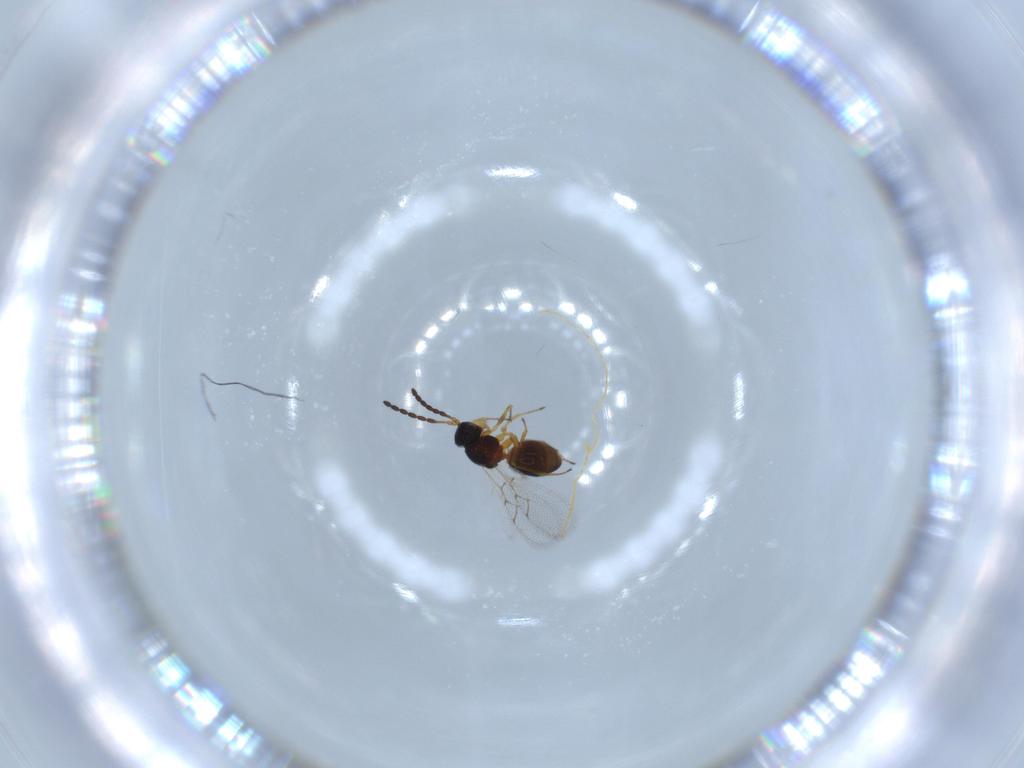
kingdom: Animalia
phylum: Arthropoda
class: Insecta
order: Hymenoptera
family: Figitidae
